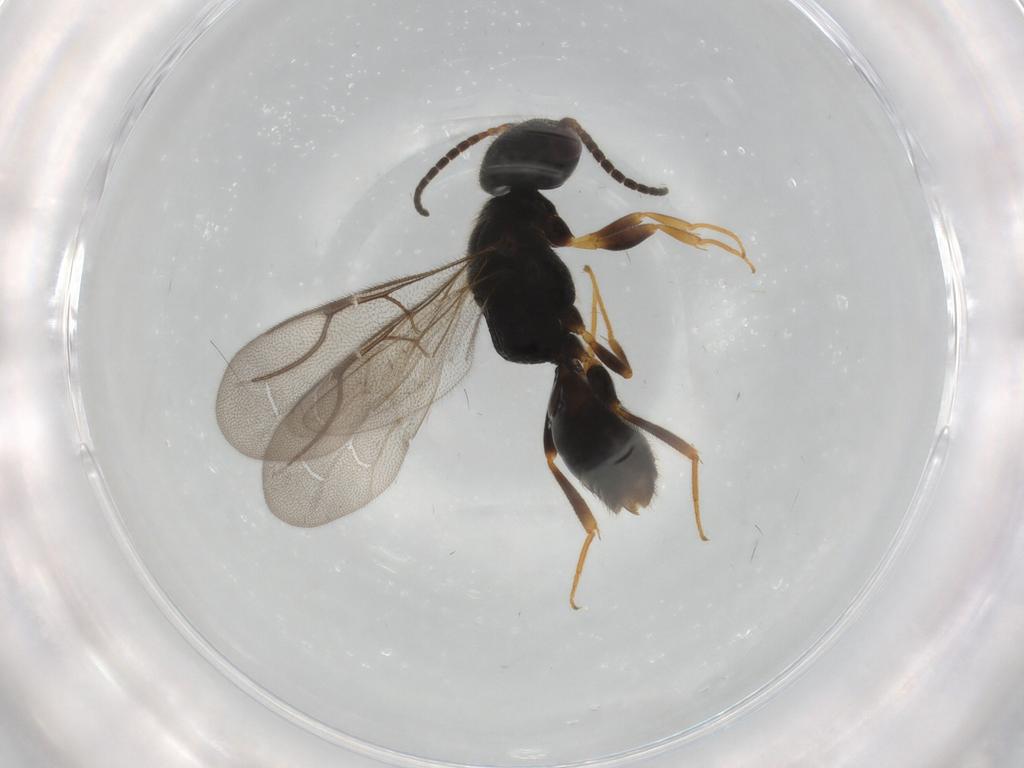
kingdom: Animalia
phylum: Arthropoda
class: Insecta
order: Hymenoptera
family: Bethylidae
